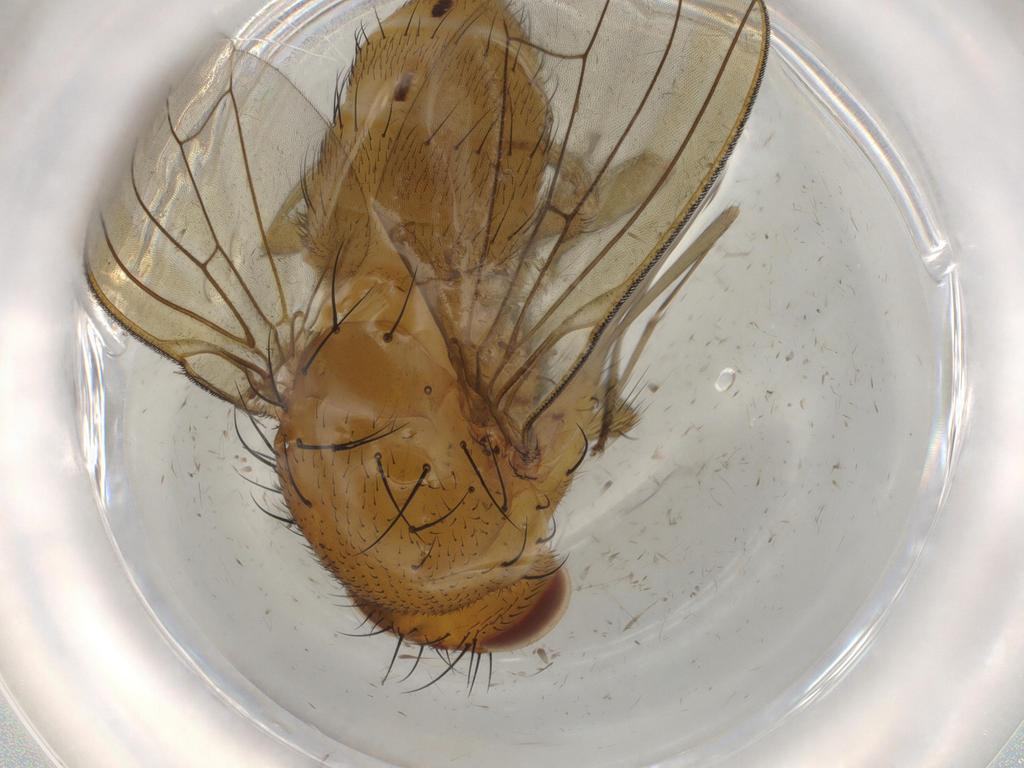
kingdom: Animalia
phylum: Arthropoda
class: Insecta
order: Diptera
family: Ceratopogonidae
